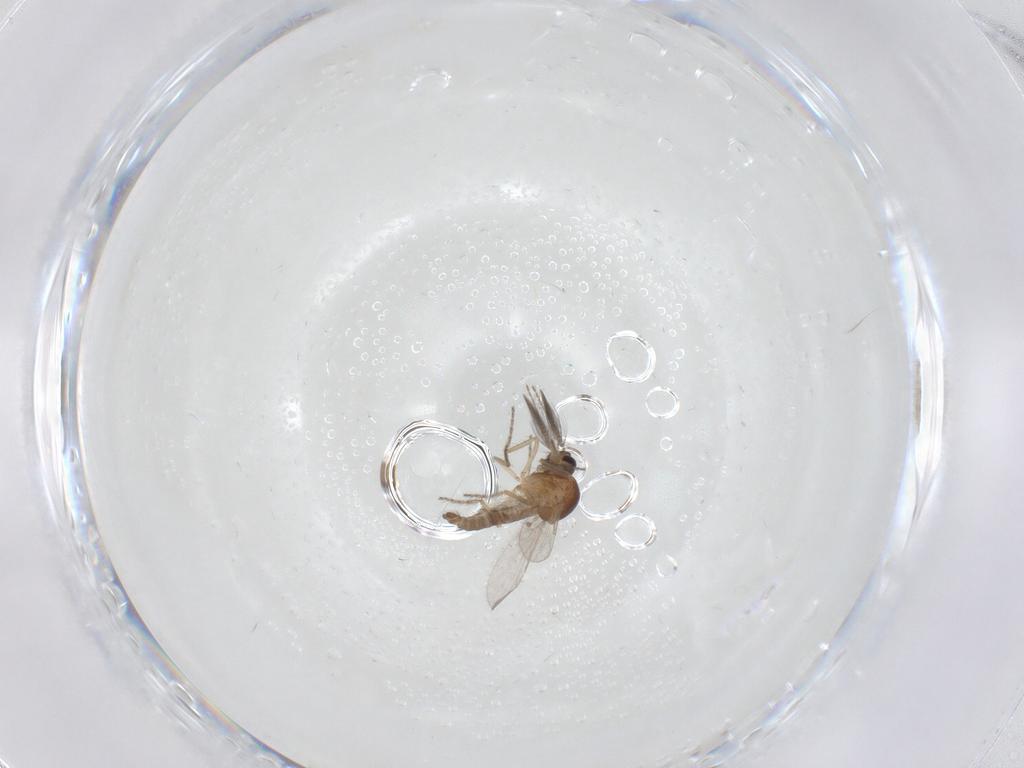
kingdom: Animalia
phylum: Arthropoda
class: Insecta
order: Diptera
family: Ceratopogonidae
